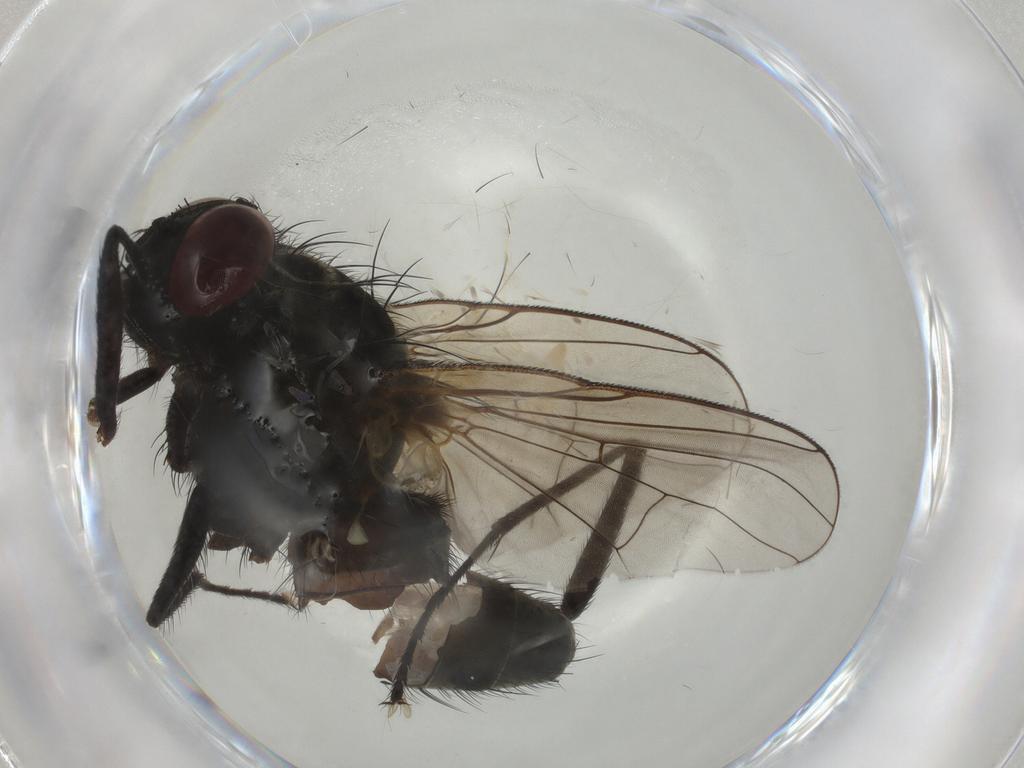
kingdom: Animalia
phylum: Arthropoda
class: Insecta
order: Diptera
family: Muscidae
